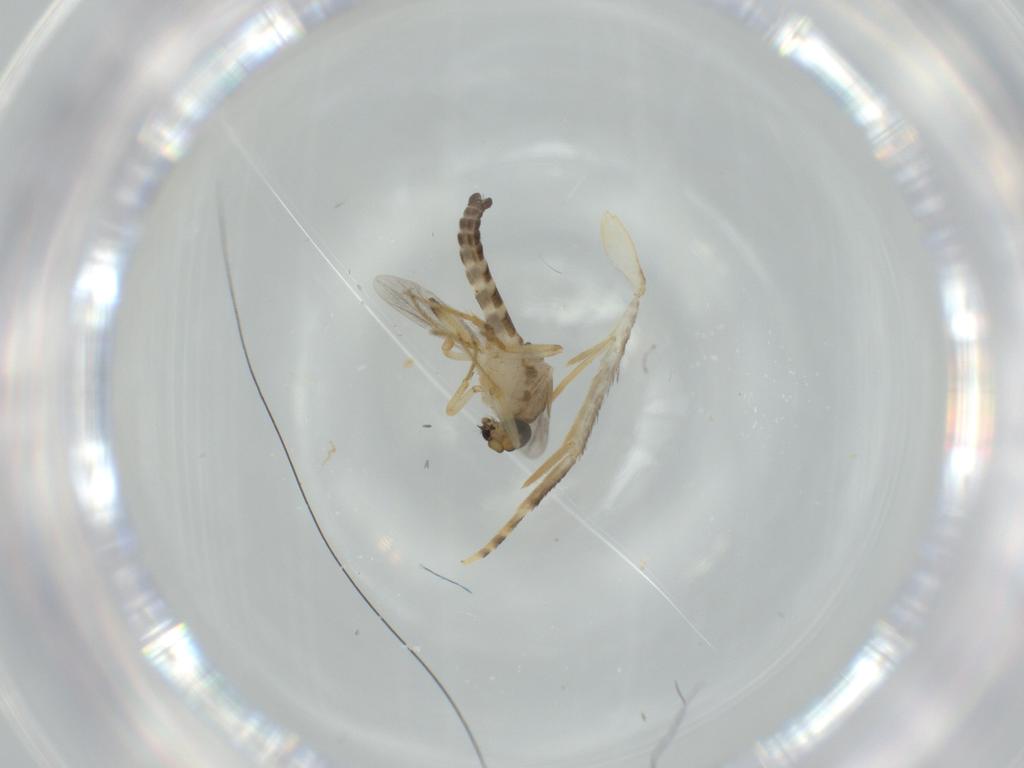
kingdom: Animalia
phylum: Arthropoda
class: Insecta
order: Diptera
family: Ceratopogonidae
